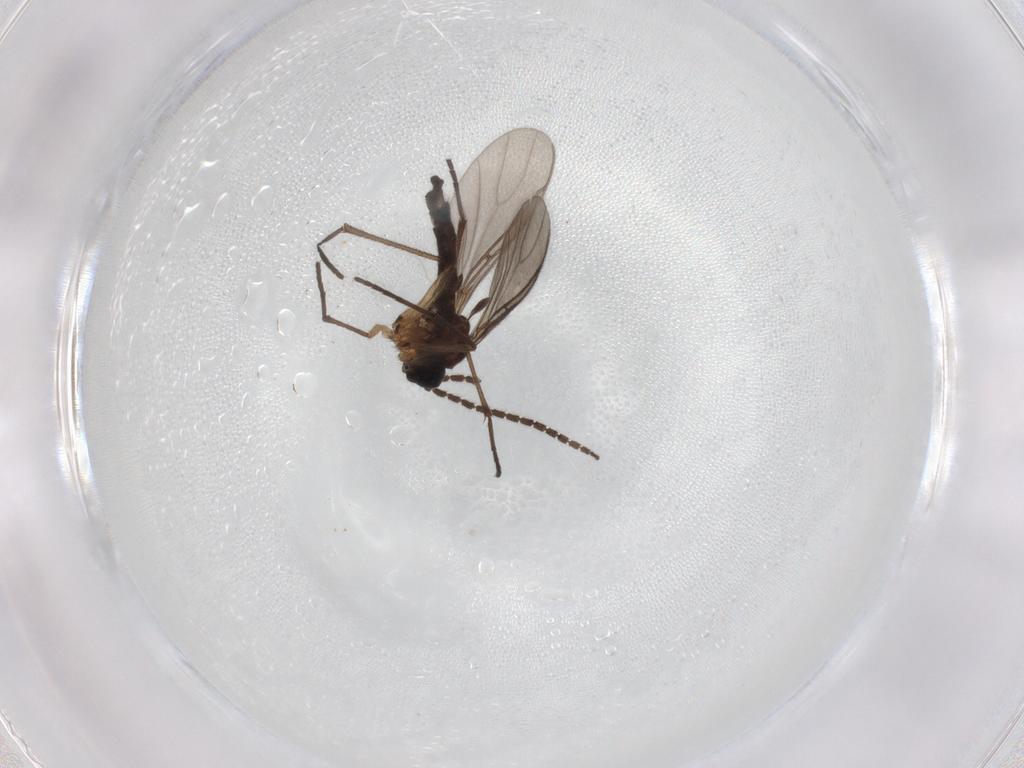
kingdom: Animalia
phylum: Arthropoda
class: Insecta
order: Diptera
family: Sciaridae
